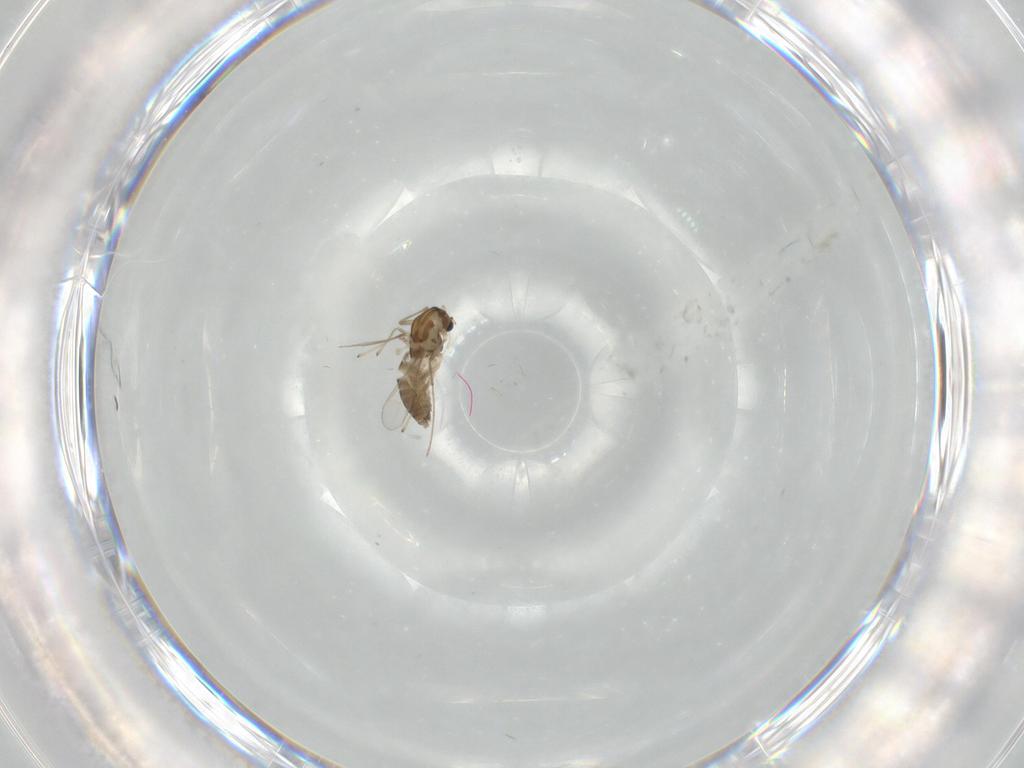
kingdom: Animalia
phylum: Arthropoda
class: Insecta
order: Diptera
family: Chironomidae
